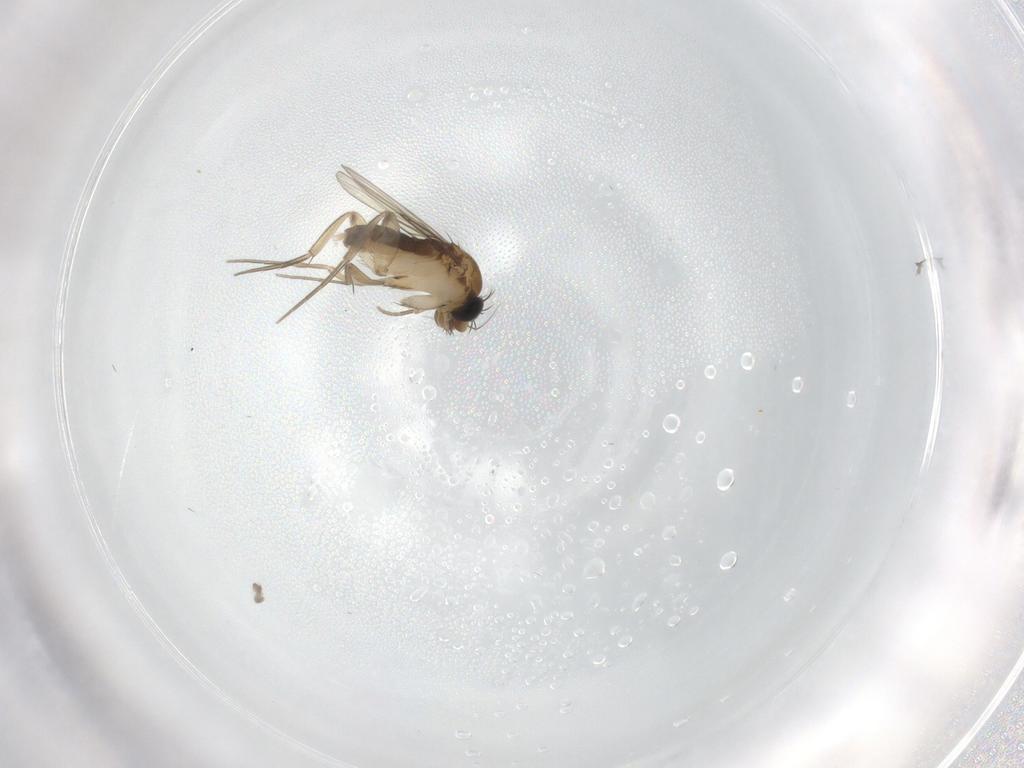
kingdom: Animalia
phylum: Arthropoda
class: Insecta
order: Diptera
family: Phoridae
